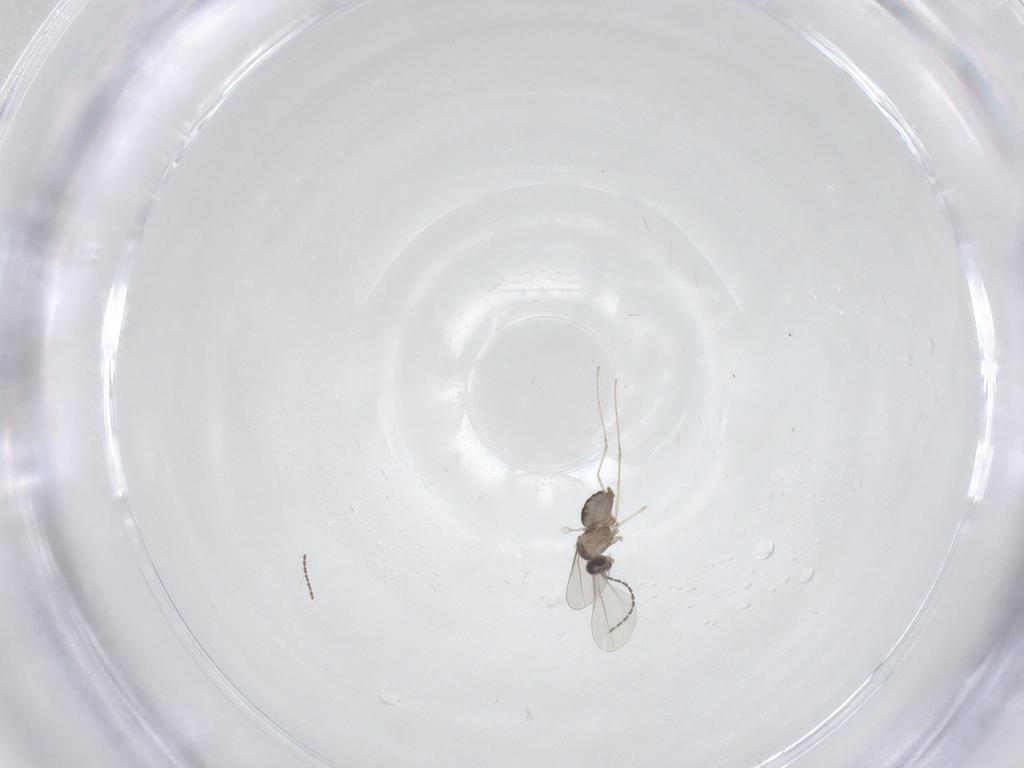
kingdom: Animalia
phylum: Arthropoda
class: Insecta
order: Diptera
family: Cecidomyiidae
